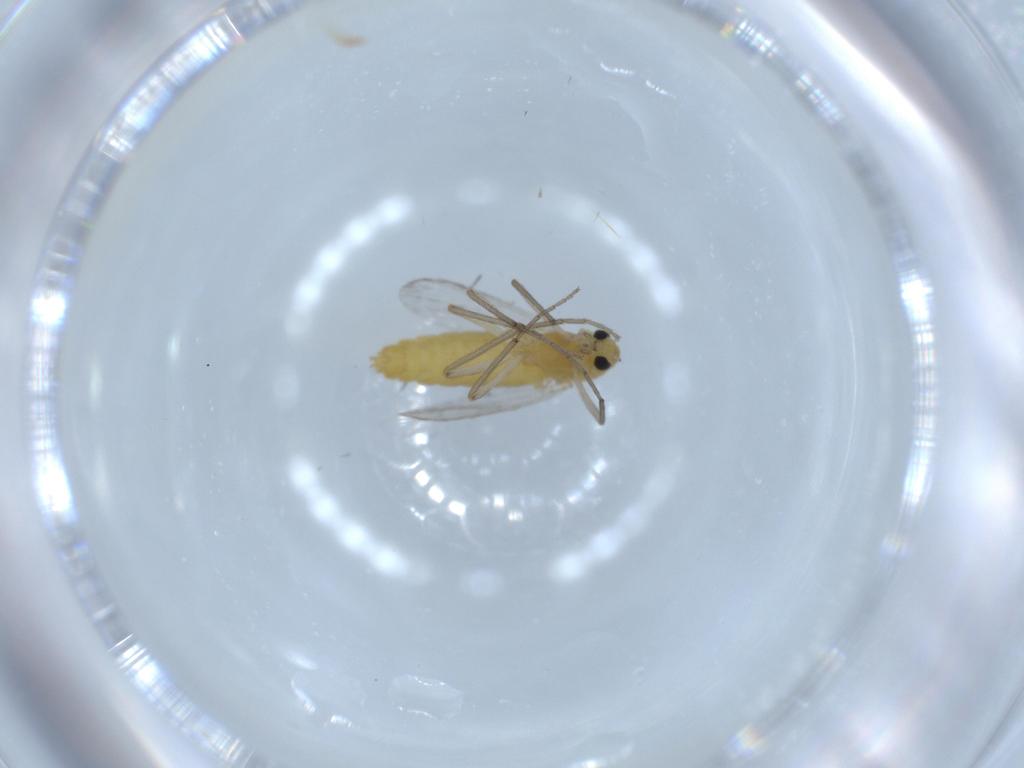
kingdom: Animalia
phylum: Arthropoda
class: Insecta
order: Diptera
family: Chironomidae
